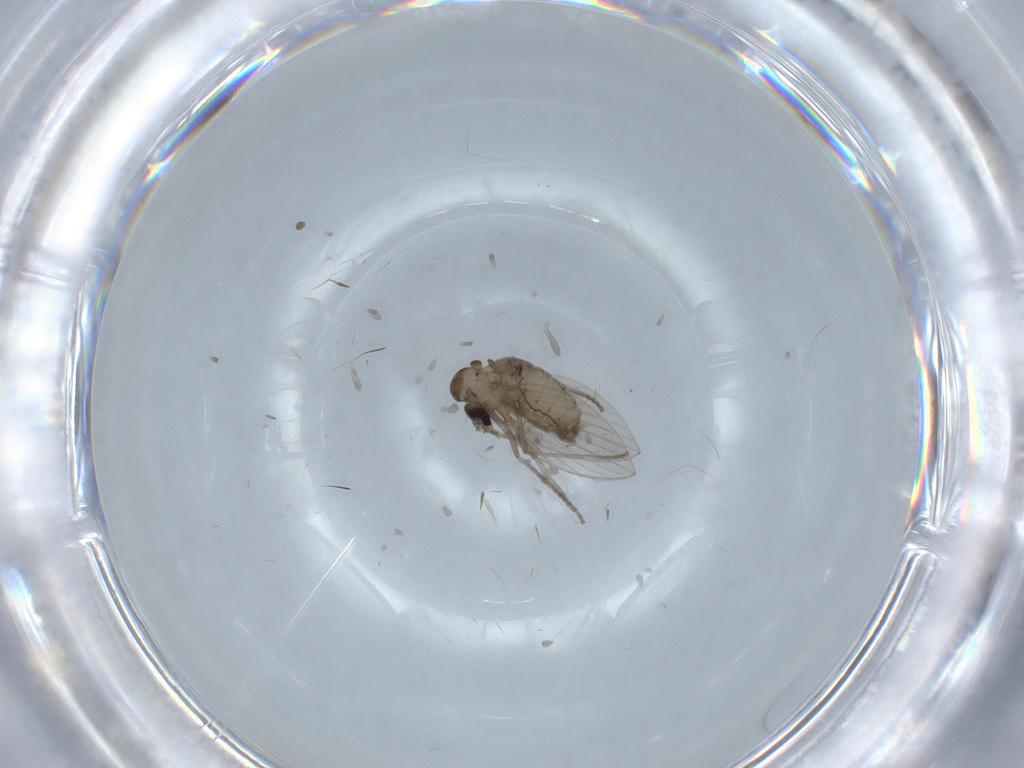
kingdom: Animalia
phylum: Arthropoda
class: Insecta
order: Diptera
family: Psychodidae
